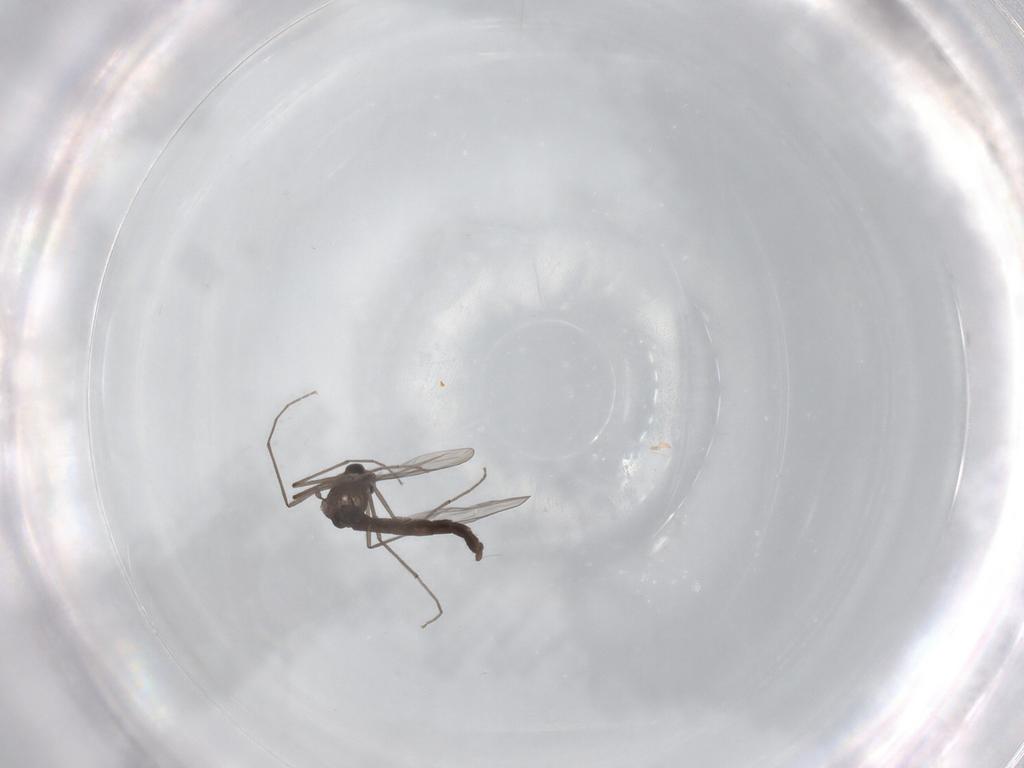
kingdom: Animalia
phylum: Arthropoda
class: Insecta
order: Diptera
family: Chironomidae
